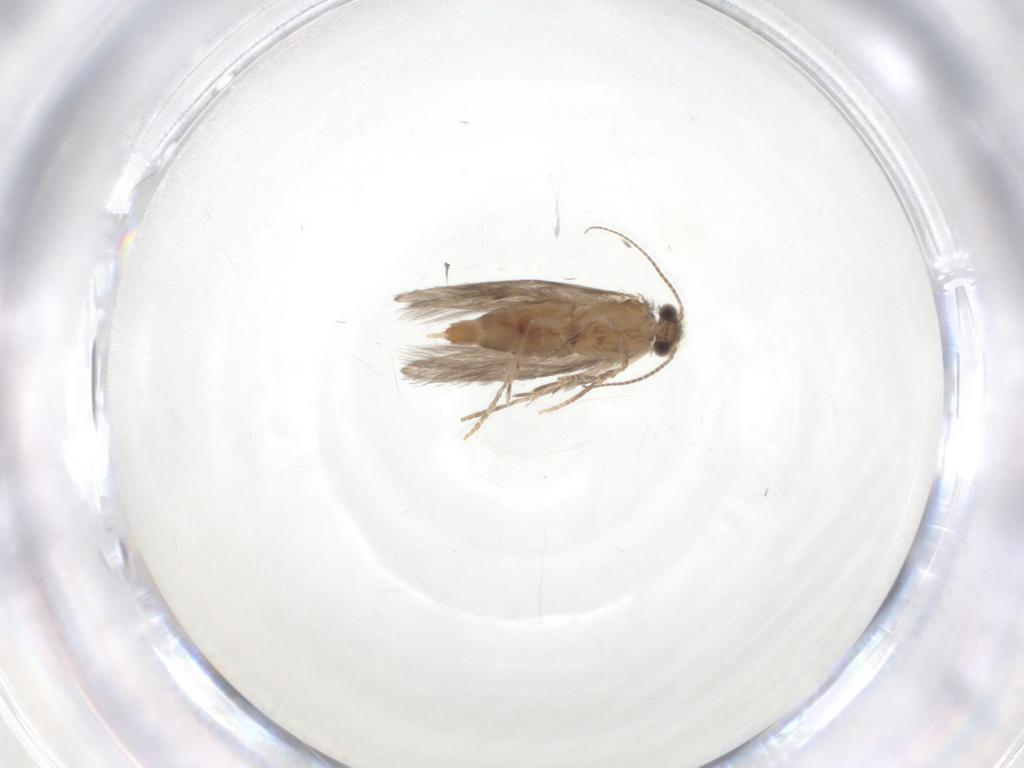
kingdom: Animalia
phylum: Arthropoda
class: Insecta
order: Trichoptera
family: Hydroptilidae
